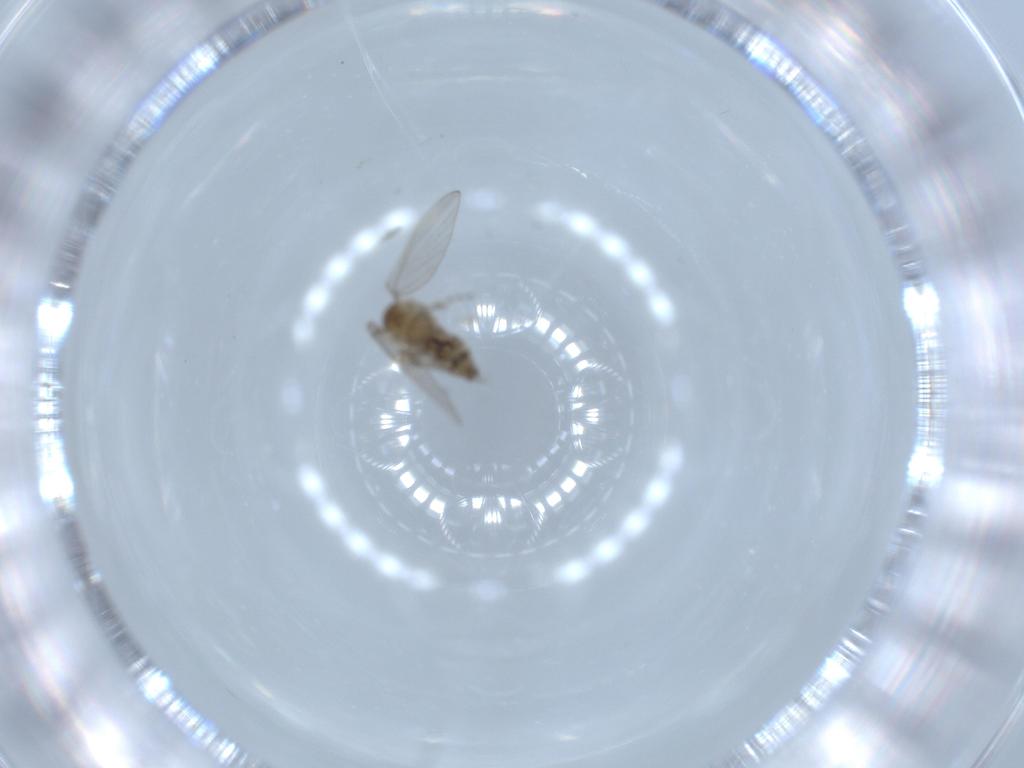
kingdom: Animalia
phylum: Arthropoda
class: Insecta
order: Diptera
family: Psychodidae
